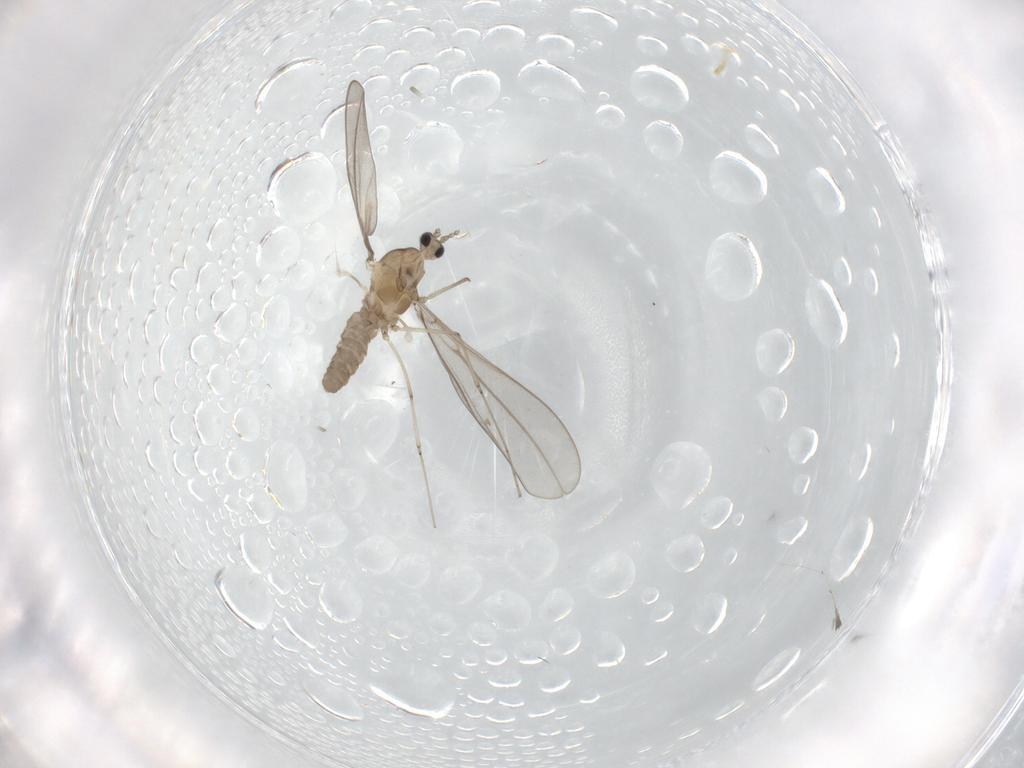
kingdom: Animalia
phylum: Arthropoda
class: Insecta
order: Diptera
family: Cecidomyiidae
